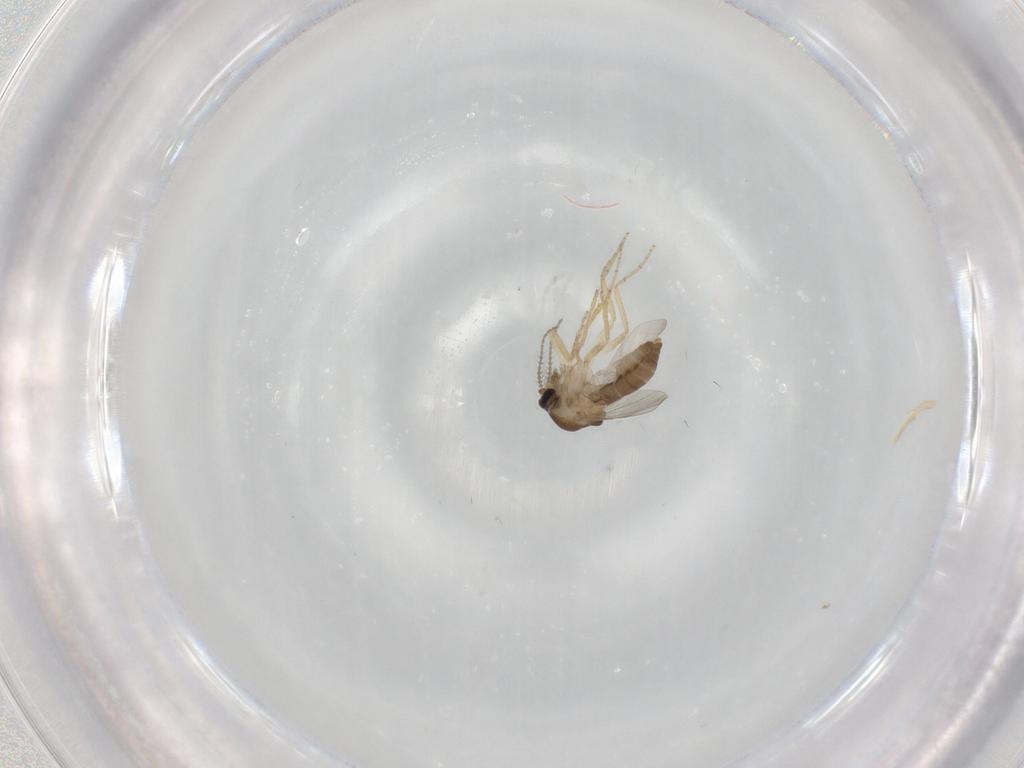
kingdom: Animalia
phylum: Arthropoda
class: Insecta
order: Diptera
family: Ceratopogonidae
